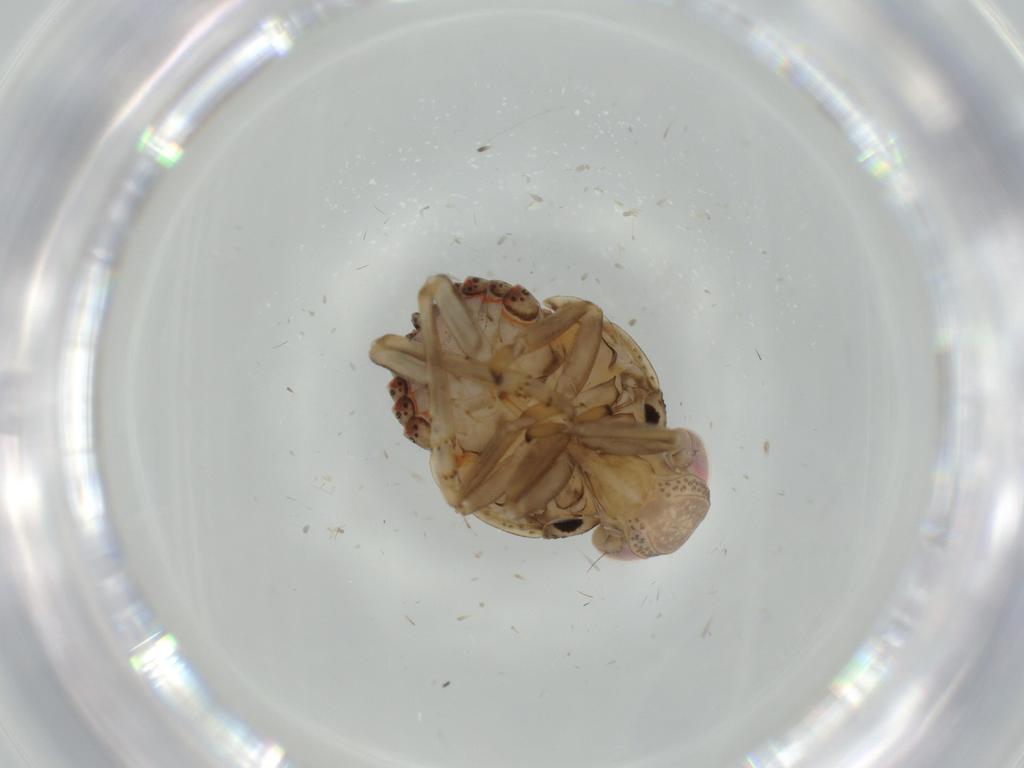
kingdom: Animalia
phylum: Arthropoda
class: Insecta
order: Hemiptera
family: Issidae
